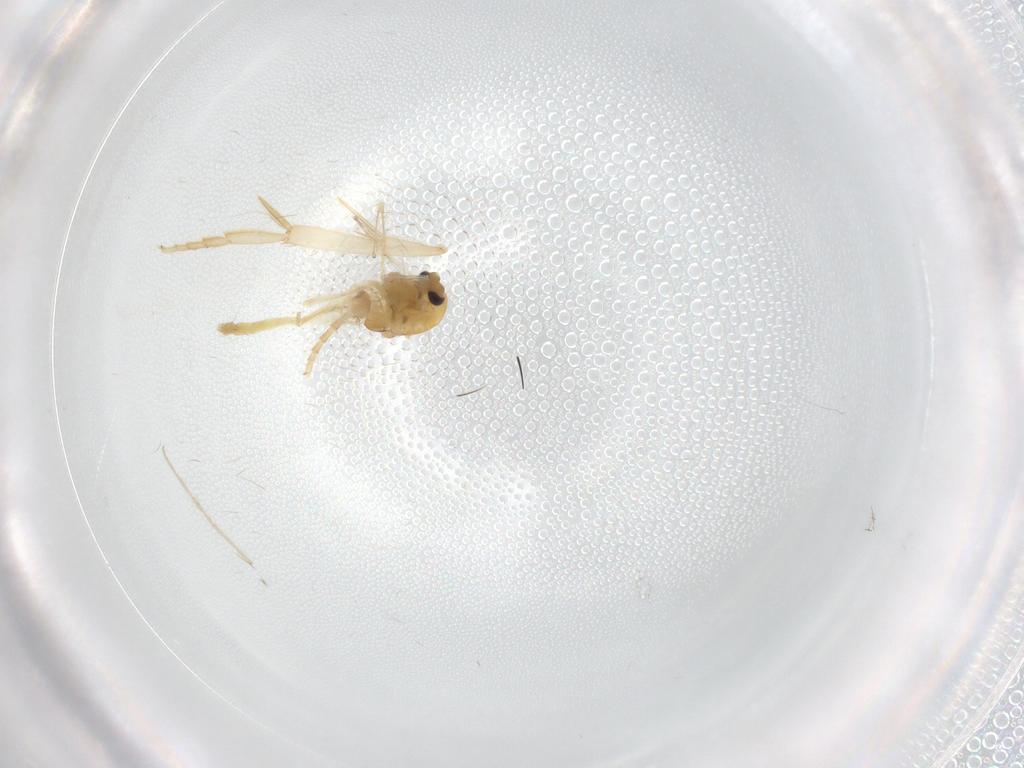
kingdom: Animalia
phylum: Arthropoda
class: Insecta
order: Diptera
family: Chironomidae
